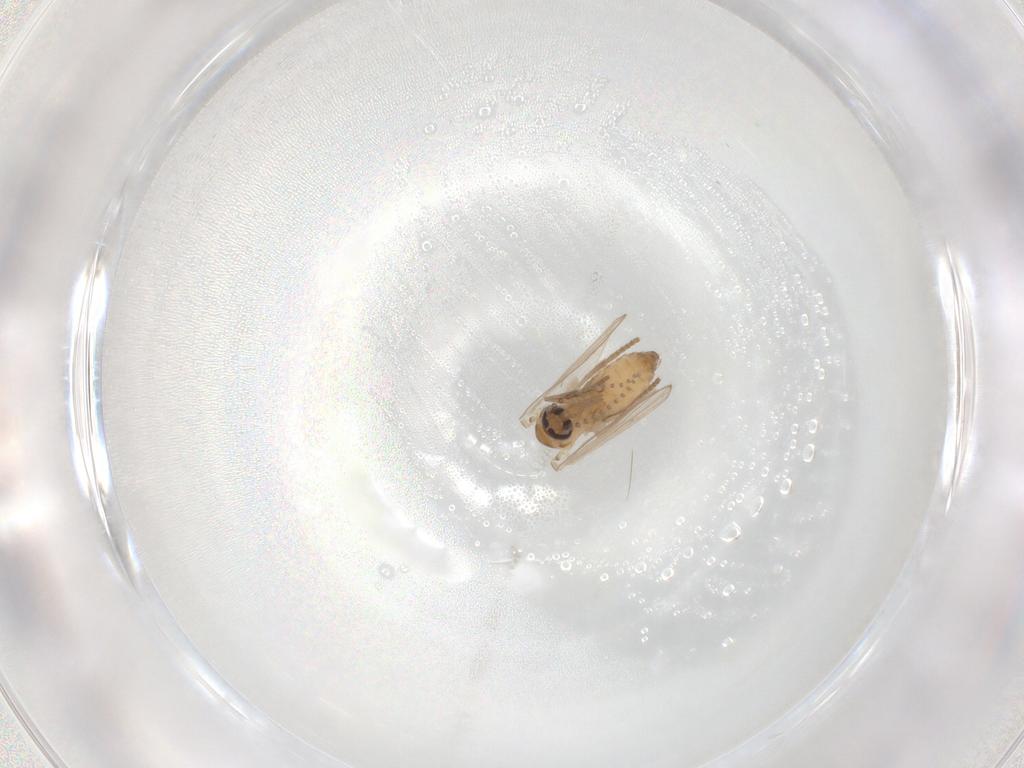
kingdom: Animalia
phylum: Arthropoda
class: Insecta
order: Diptera
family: Psychodidae
